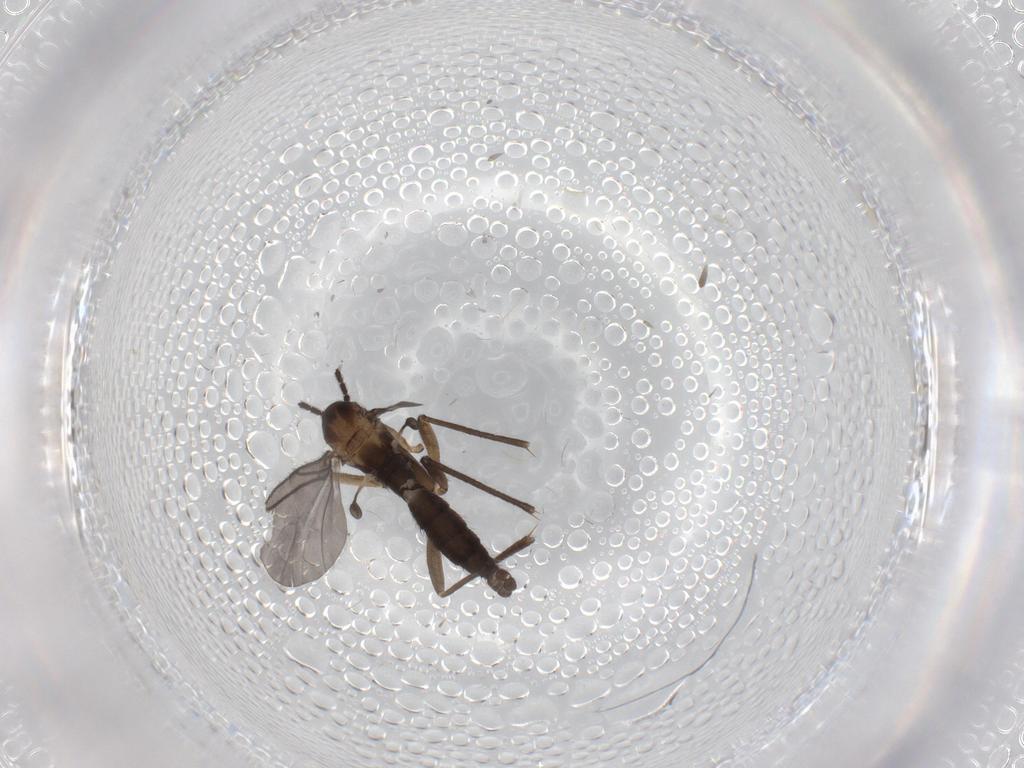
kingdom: Animalia
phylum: Arthropoda
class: Insecta
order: Diptera
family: Sciaridae
